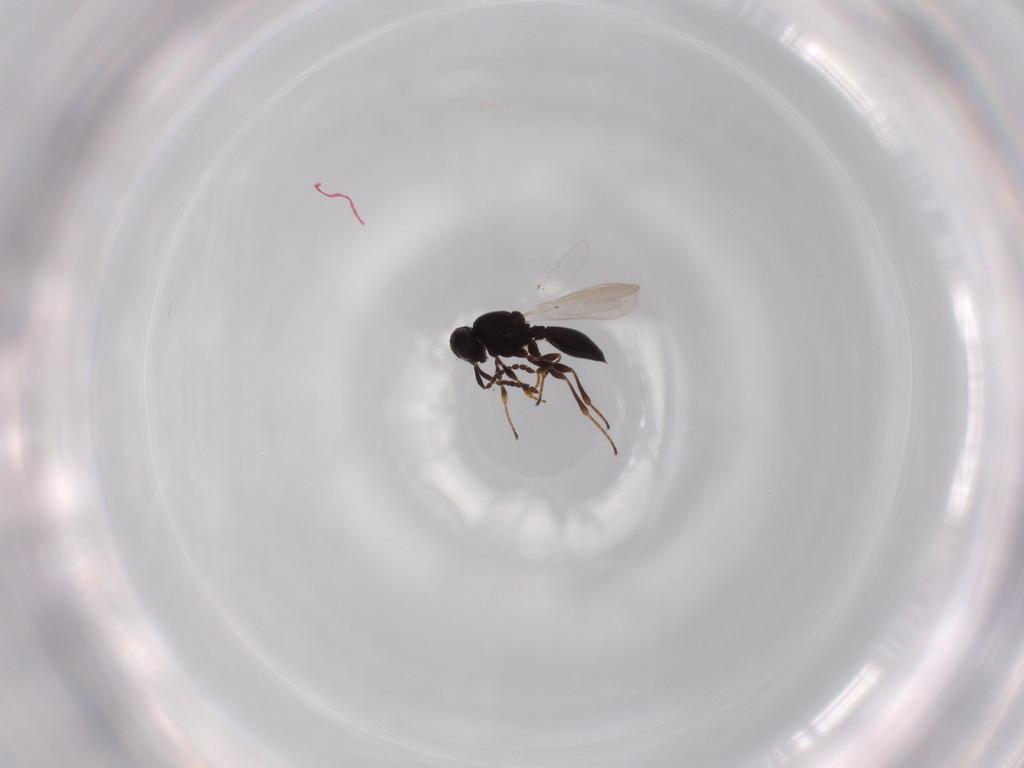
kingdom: Animalia
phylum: Arthropoda
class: Insecta
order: Hymenoptera
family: Platygastridae
